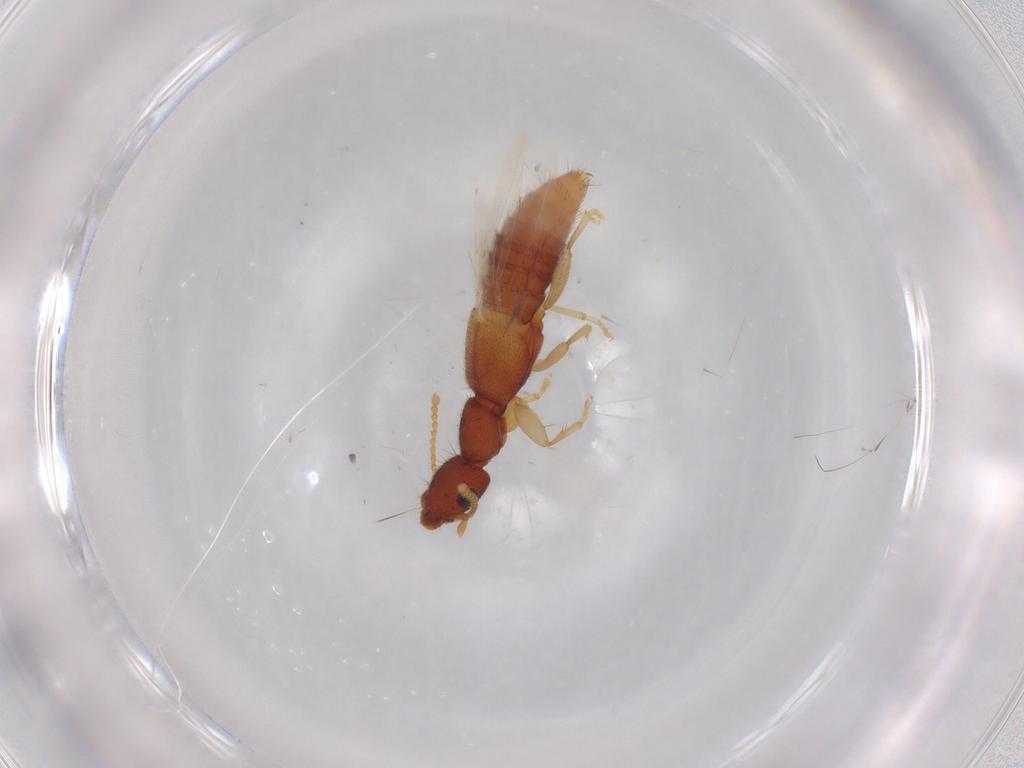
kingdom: Animalia
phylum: Arthropoda
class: Insecta
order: Coleoptera
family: Staphylinidae
